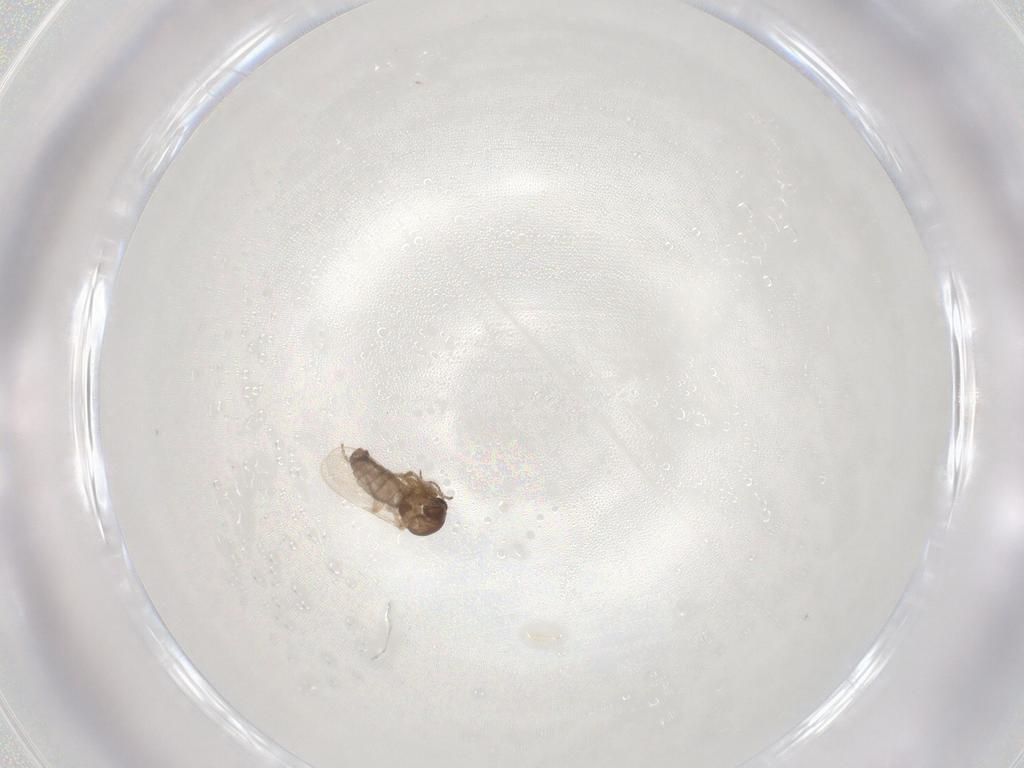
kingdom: Animalia
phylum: Arthropoda
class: Insecta
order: Diptera
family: Ceratopogonidae
